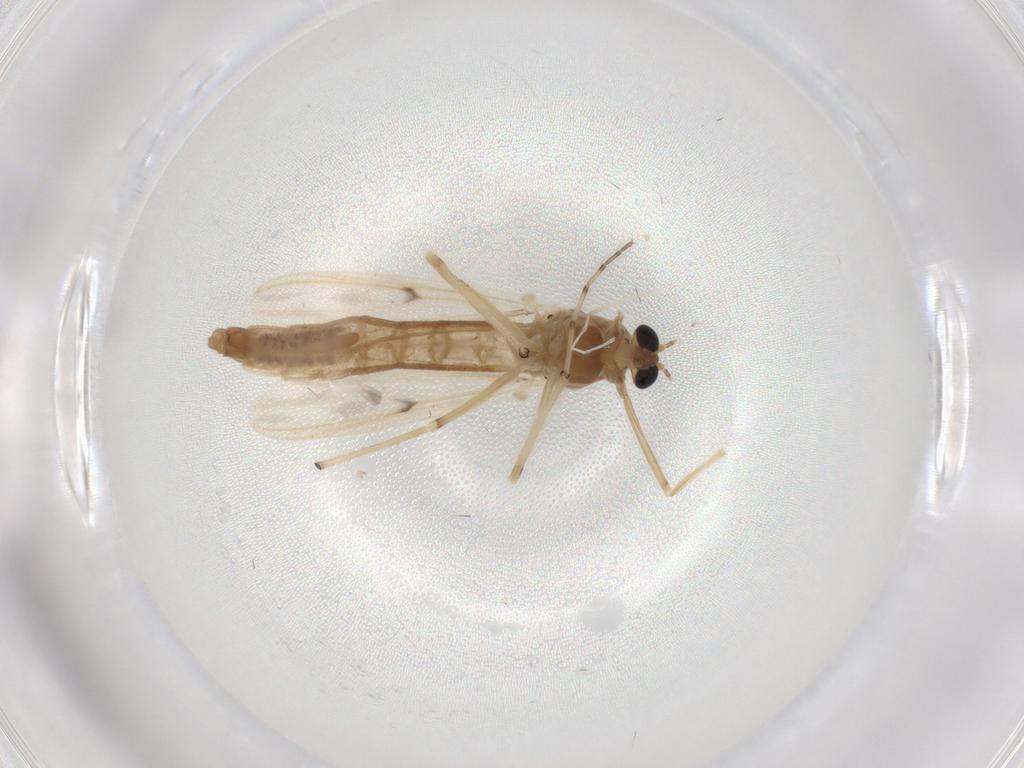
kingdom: Animalia
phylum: Arthropoda
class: Insecta
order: Diptera
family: Chironomidae
